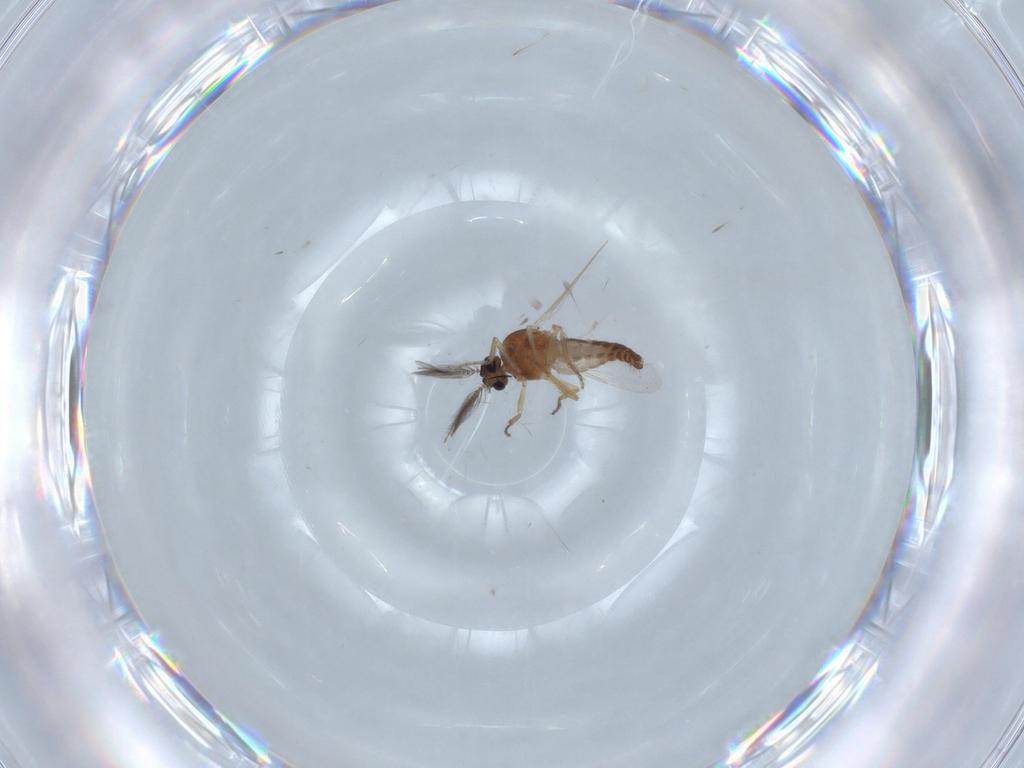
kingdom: Animalia
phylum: Arthropoda
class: Insecta
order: Diptera
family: Ceratopogonidae
